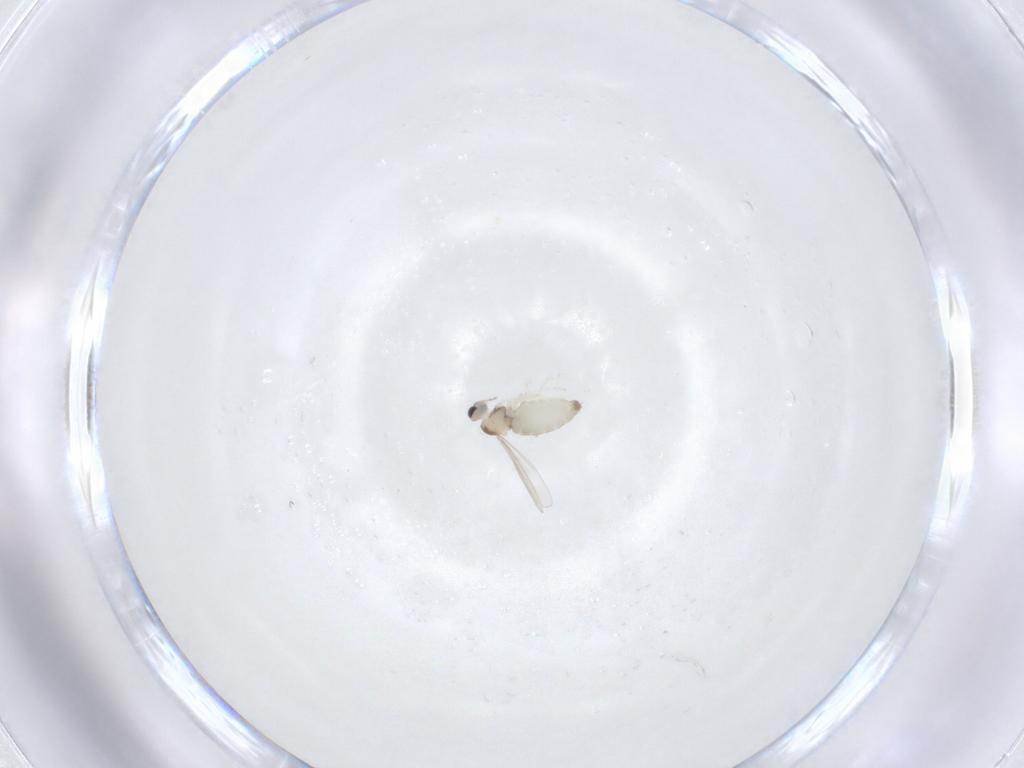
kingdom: Animalia
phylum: Arthropoda
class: Insecta
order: Diptera
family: Cecidomyiidae
